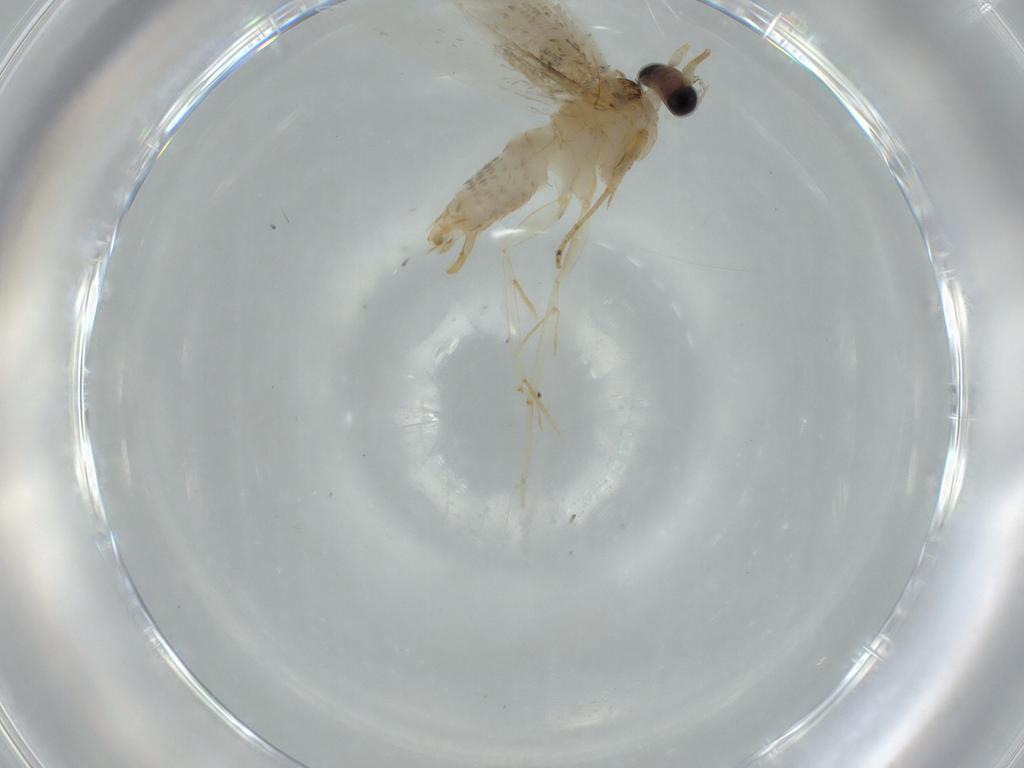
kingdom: Animalia
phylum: Arthropoda
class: Insecta
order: Lepidoptera
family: Tineidae
